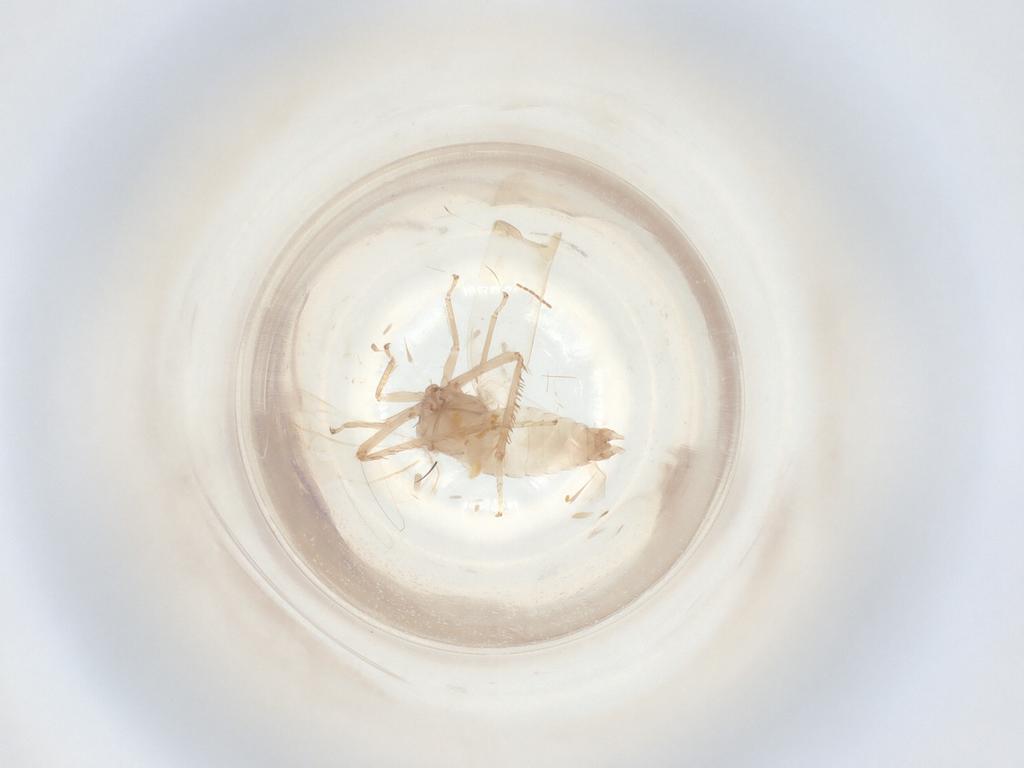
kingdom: Animalia
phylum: Arthropoda
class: Insecta
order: Hemiptera
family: Cicadellidae
